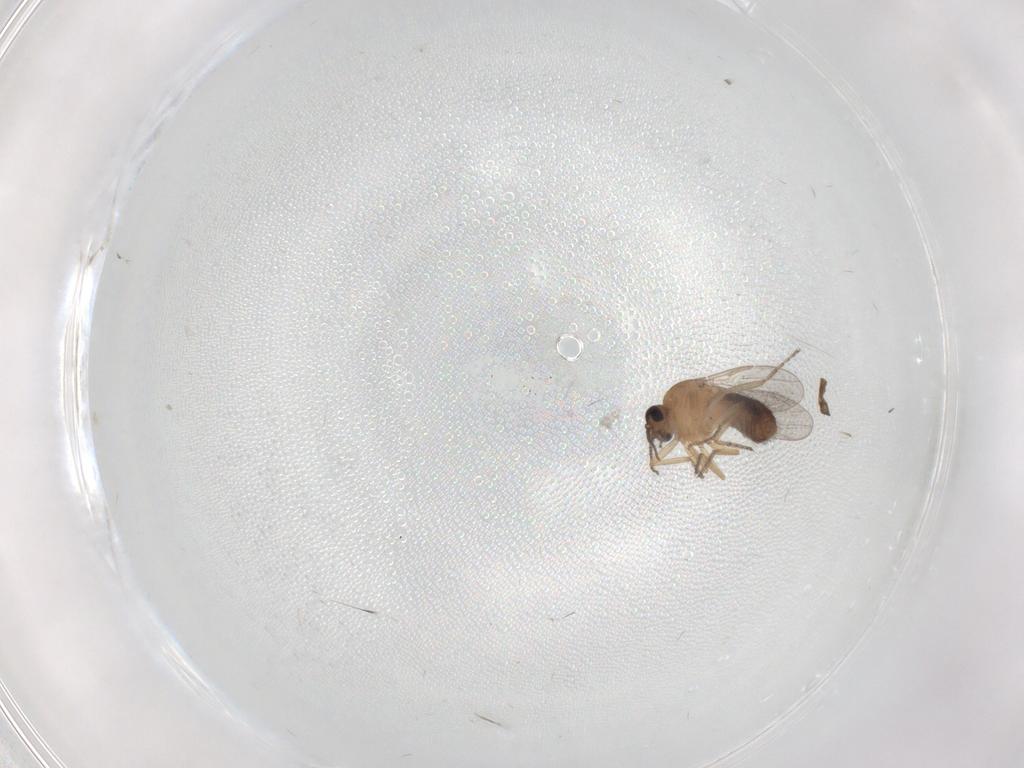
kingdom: Animalia
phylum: Arthropoda
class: Insecta
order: Diptera
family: Ceratopogonidae
